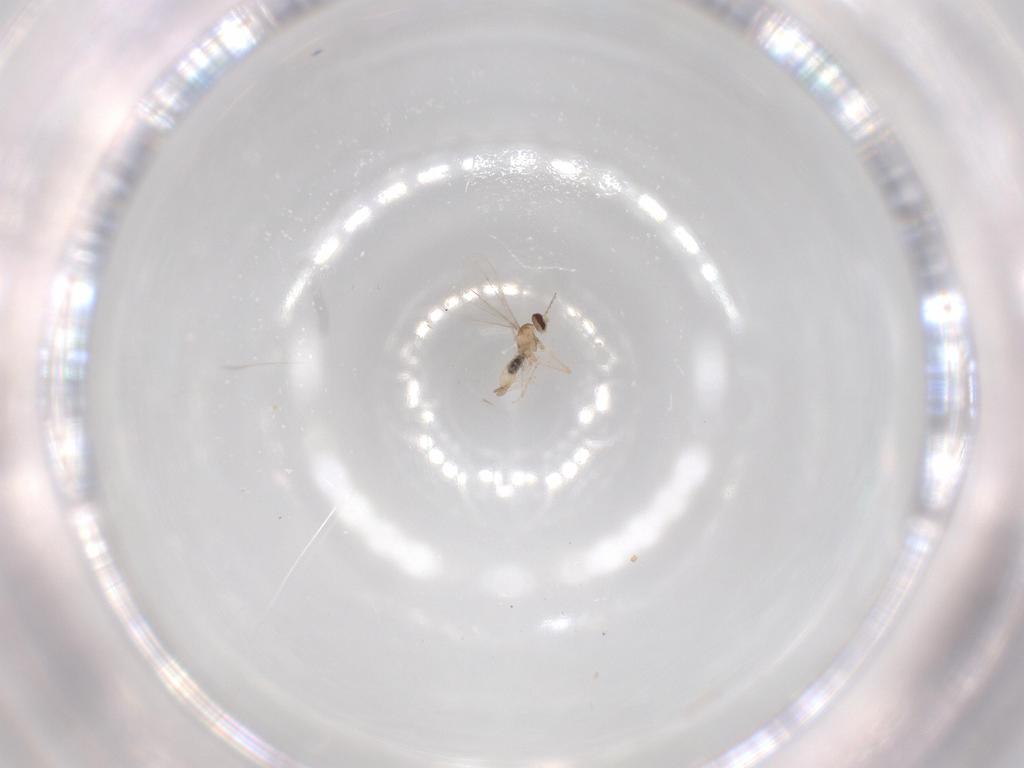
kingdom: Animalia
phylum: Arthropoda
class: Insecta
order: Diptera
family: Cecidomyiidae
